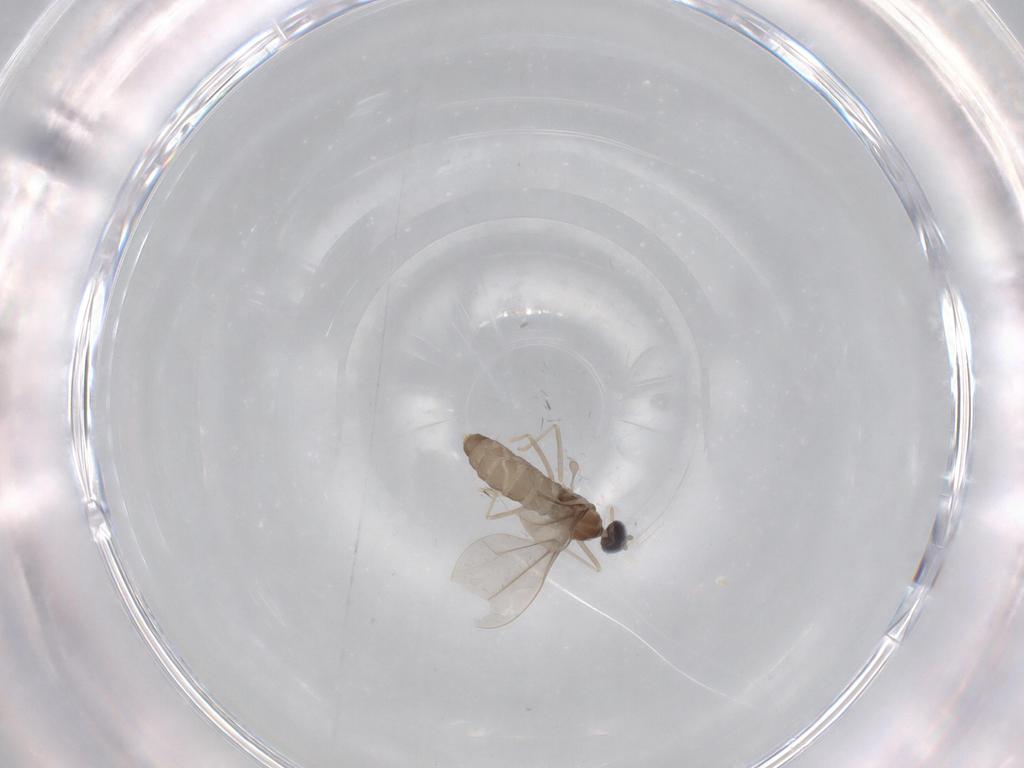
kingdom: Animalia
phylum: Arthropoda
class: Insecta
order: Diptera
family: Cecidomyiidae
